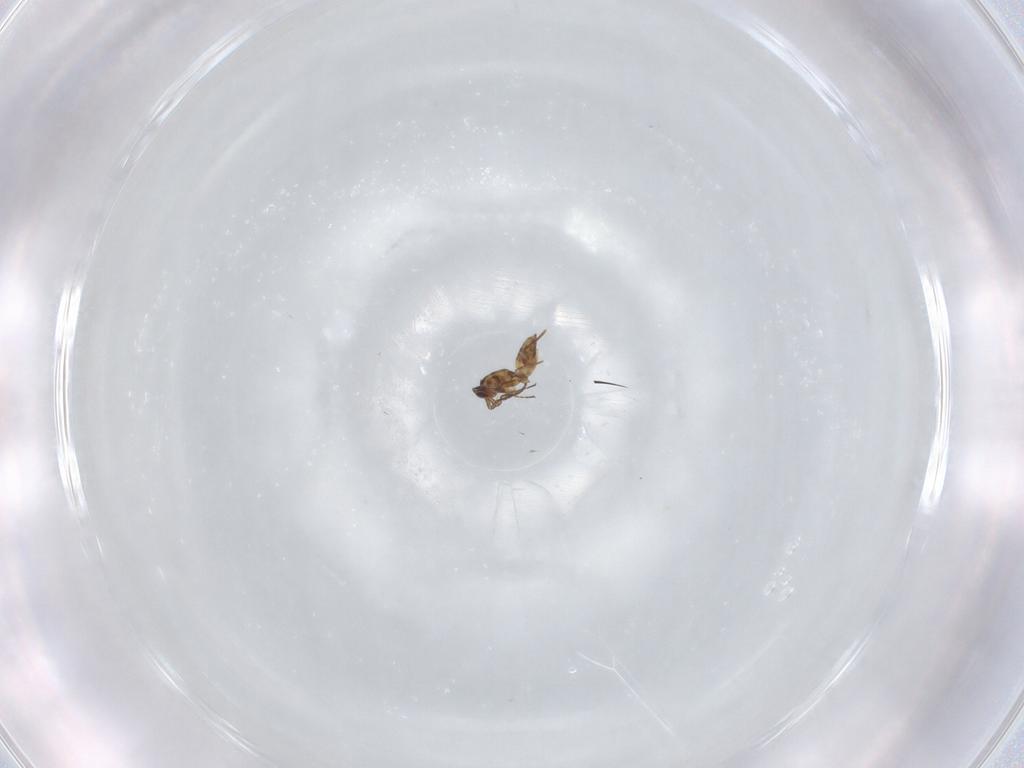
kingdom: Animalia
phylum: Arthropoda
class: Insecta
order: Hymenoptera
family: Mymaridae
